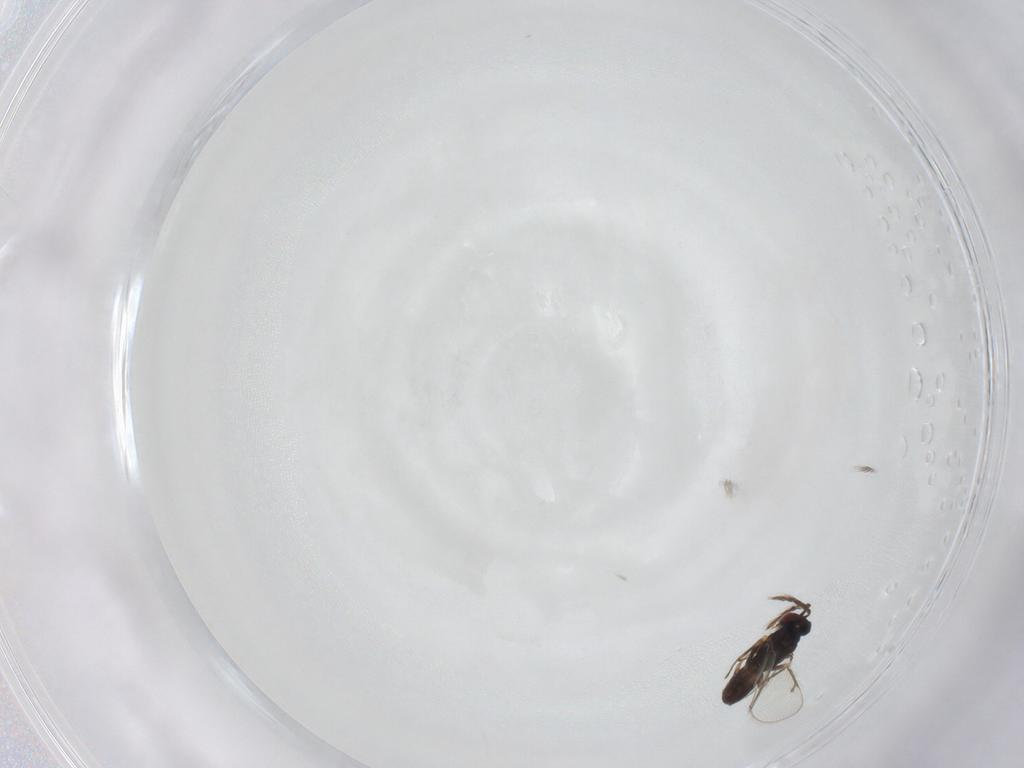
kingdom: Animalia
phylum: Arthropoda
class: Insecta
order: Hymenoptera
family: Eulophidae
